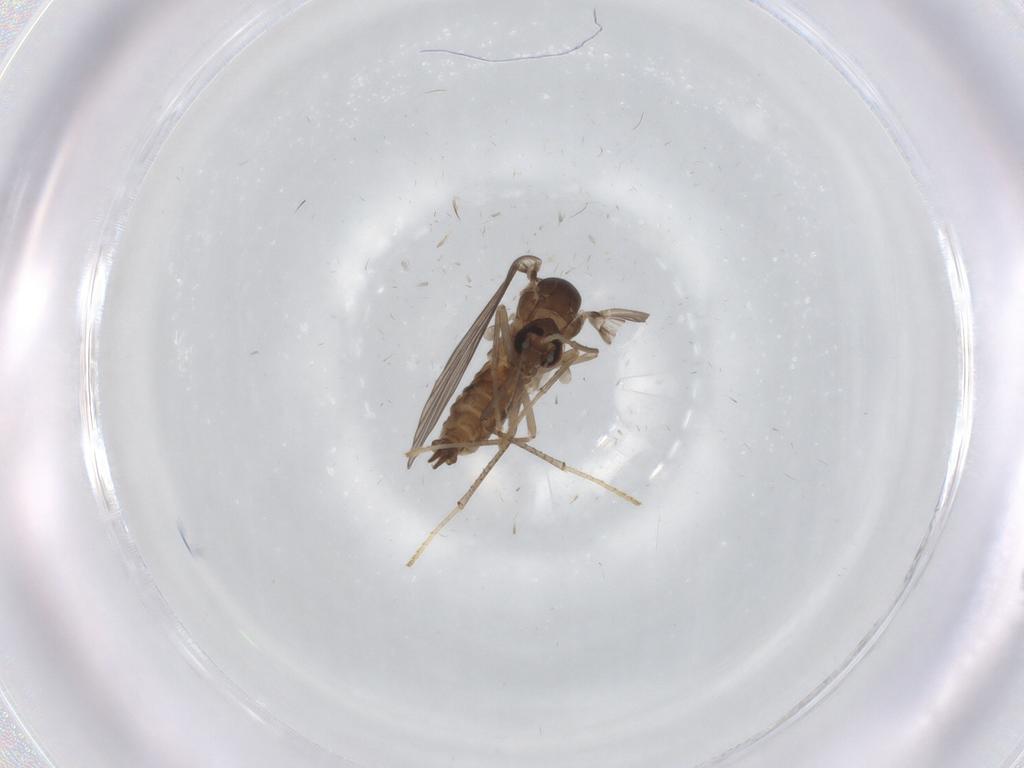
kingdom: Animalia
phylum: Arthropoda
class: Insecta
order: Diptera
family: Psychodidae
